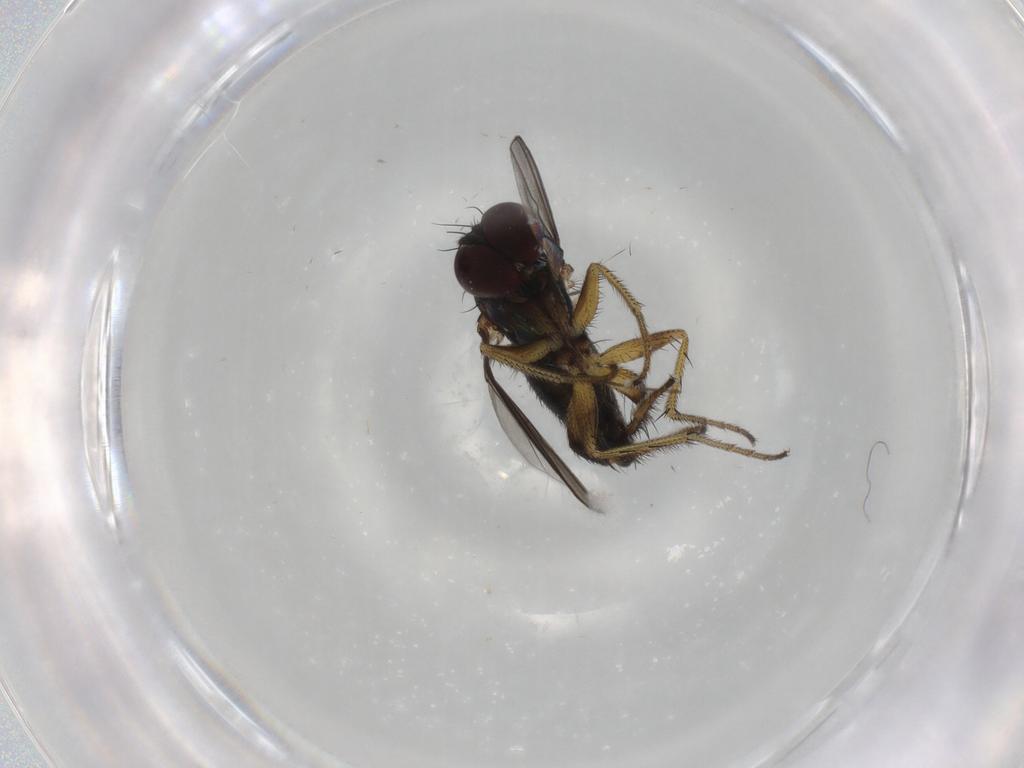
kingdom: Animalia
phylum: Arthropoda
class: Insecta
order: Diptera
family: Dolichopodidae
